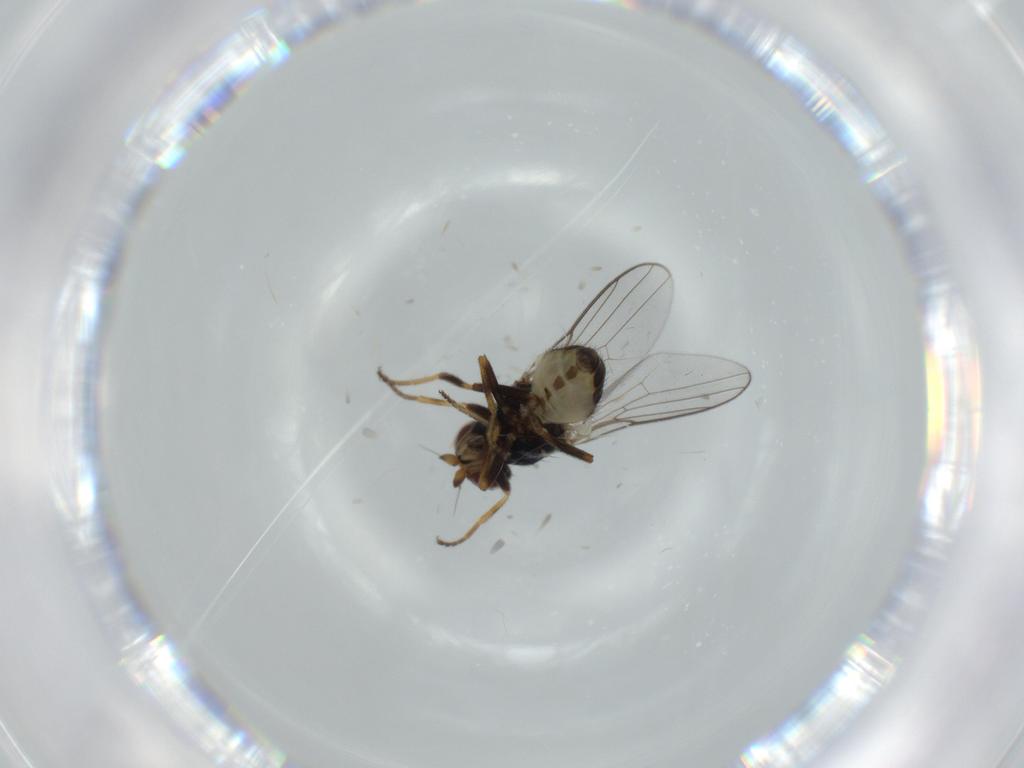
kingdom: Animalia
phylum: Arthropoda
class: Insecta
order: Diptera
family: Chloropidae
